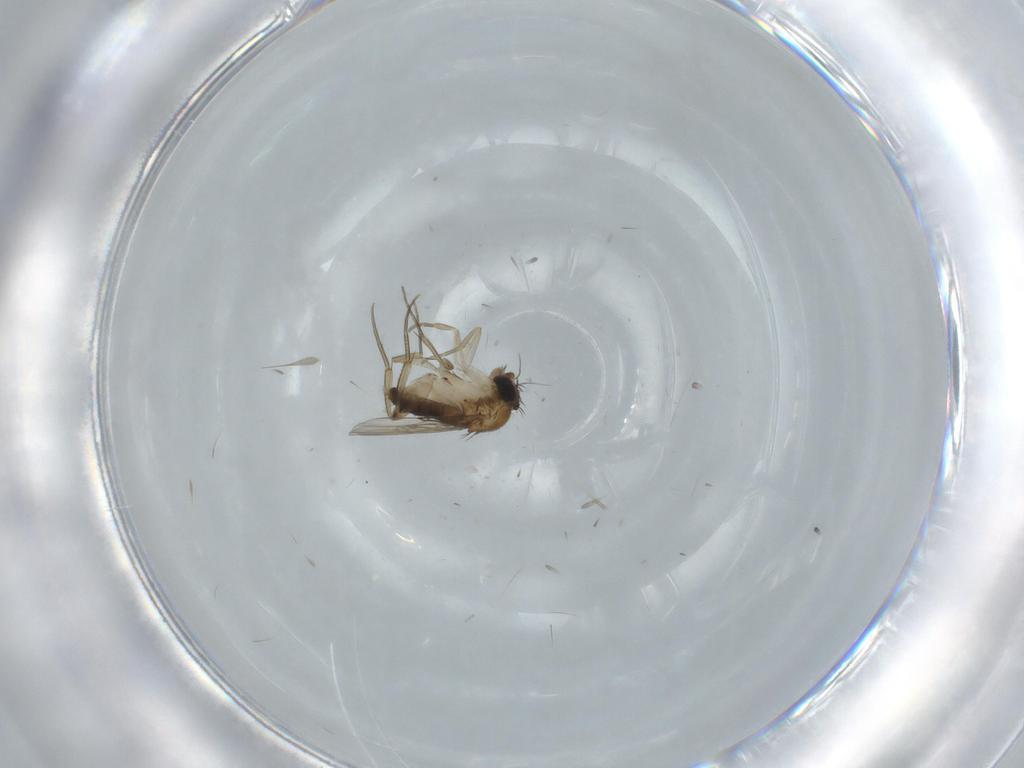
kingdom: Animalia
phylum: Arthropoda
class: Insecta
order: Diptera
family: Phoridae
